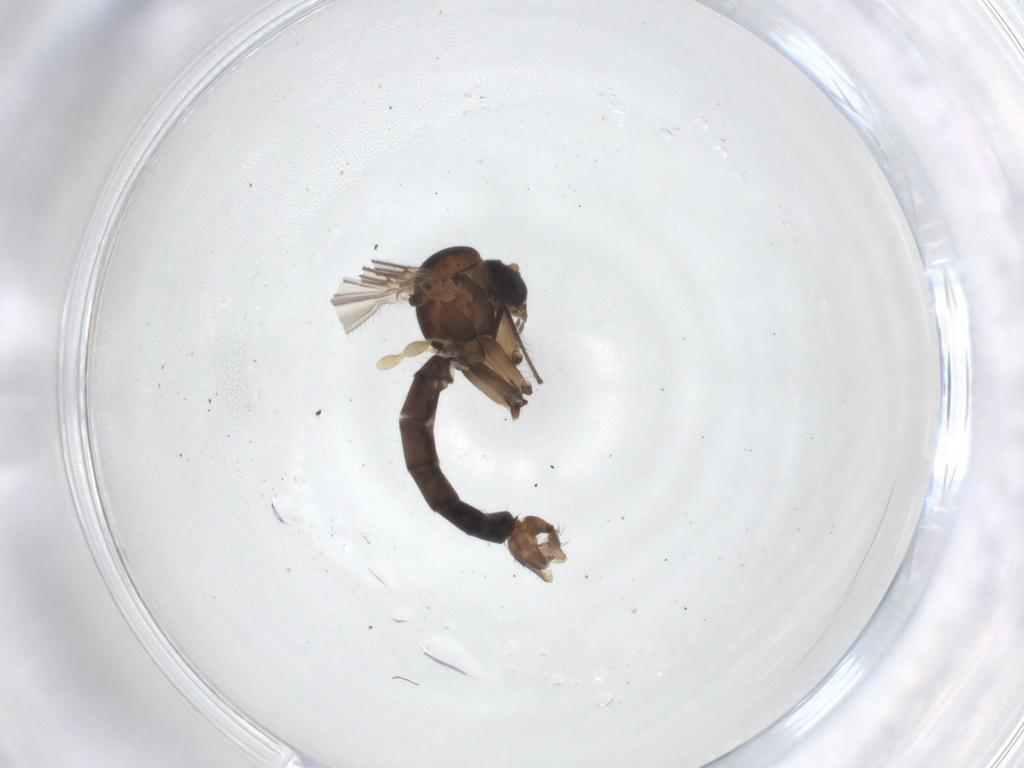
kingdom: Animalia
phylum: Arthropoda
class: Insecta
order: Diptera
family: Mycetophilidae
